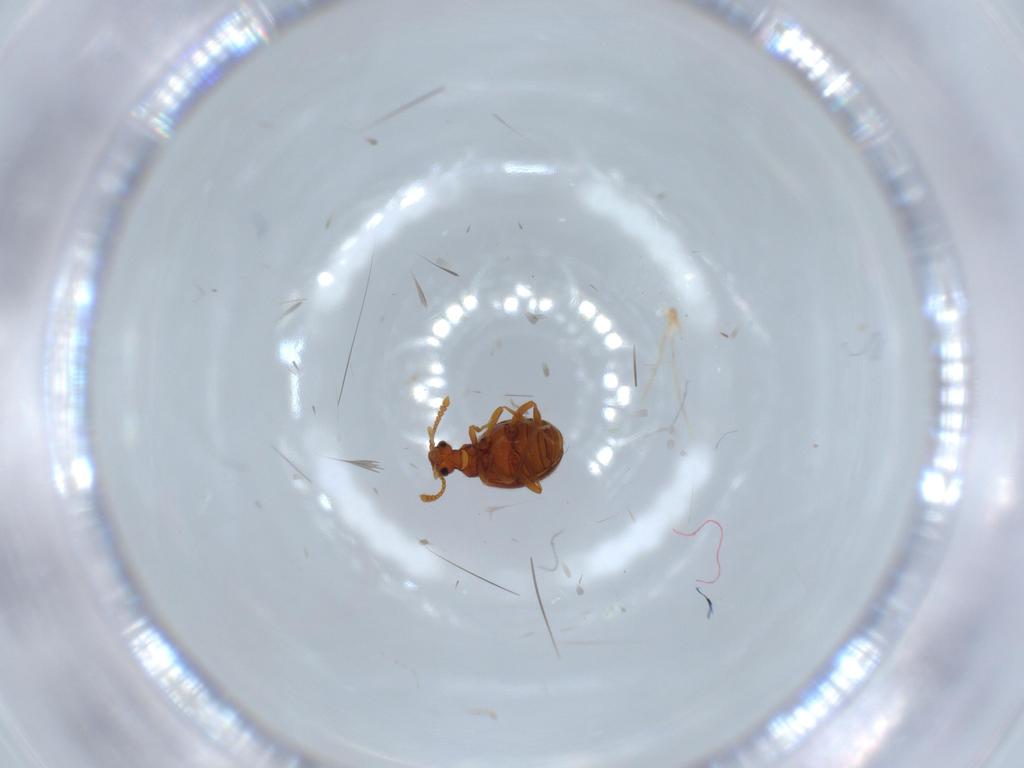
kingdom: Animalia
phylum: Arthropoda
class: Insecta
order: Coleoptera
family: Aderidae
